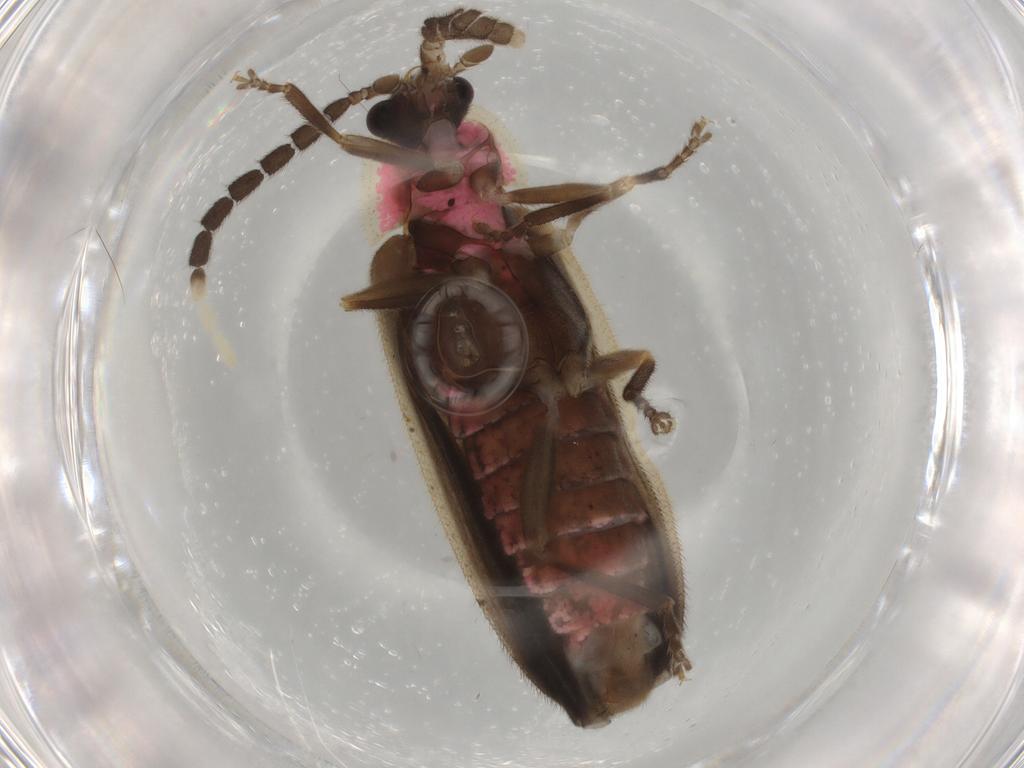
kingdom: Animalia
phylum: Arthropoda
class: Insecta
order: Coleoptera
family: Lampyridae
